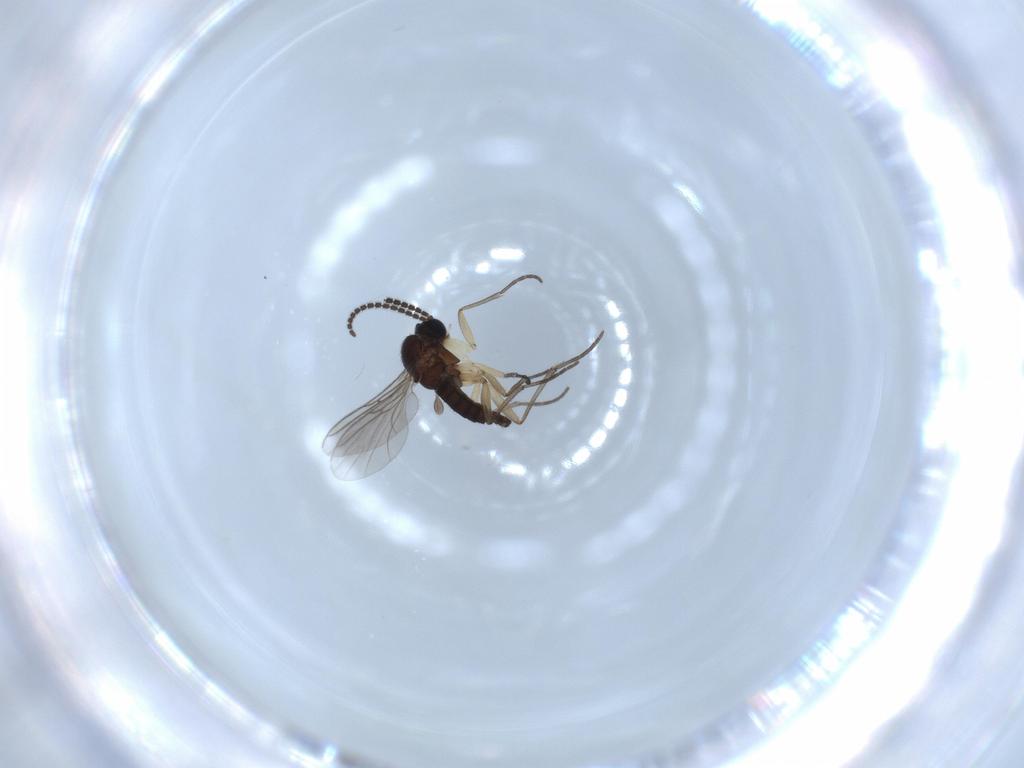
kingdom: Animalia
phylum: Arthropoda
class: Insecta
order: Diptera
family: Sciaridae
